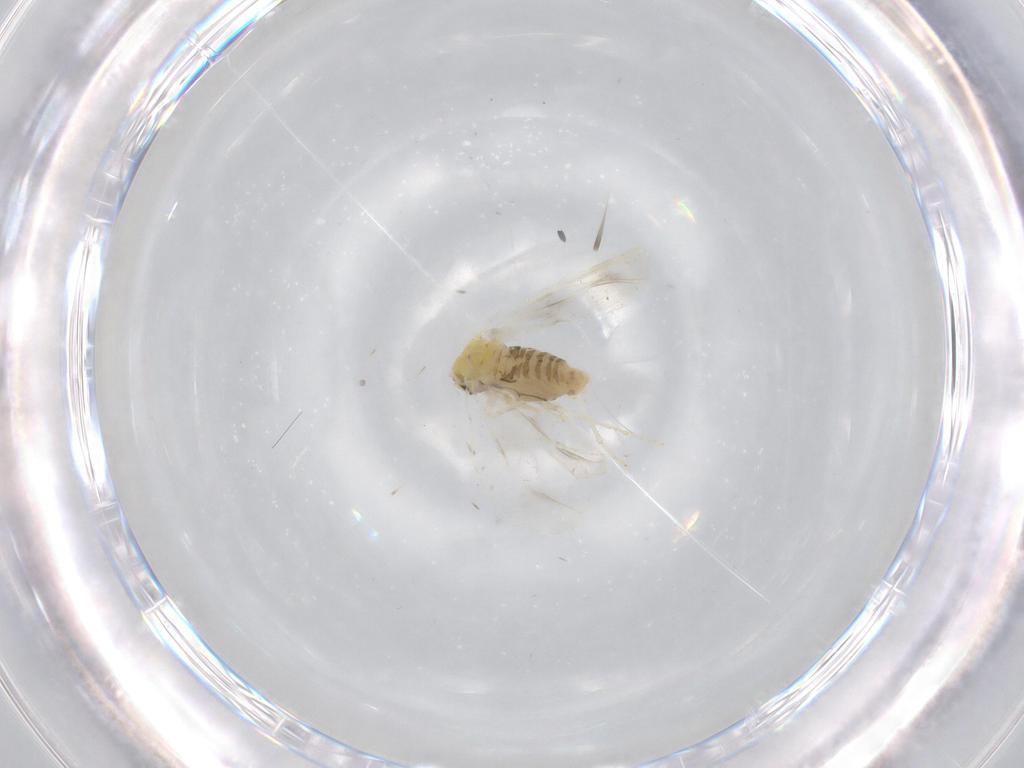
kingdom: Animalia
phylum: Arthropoda
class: Insecta
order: Hemiptera
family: Aleyrodidae
